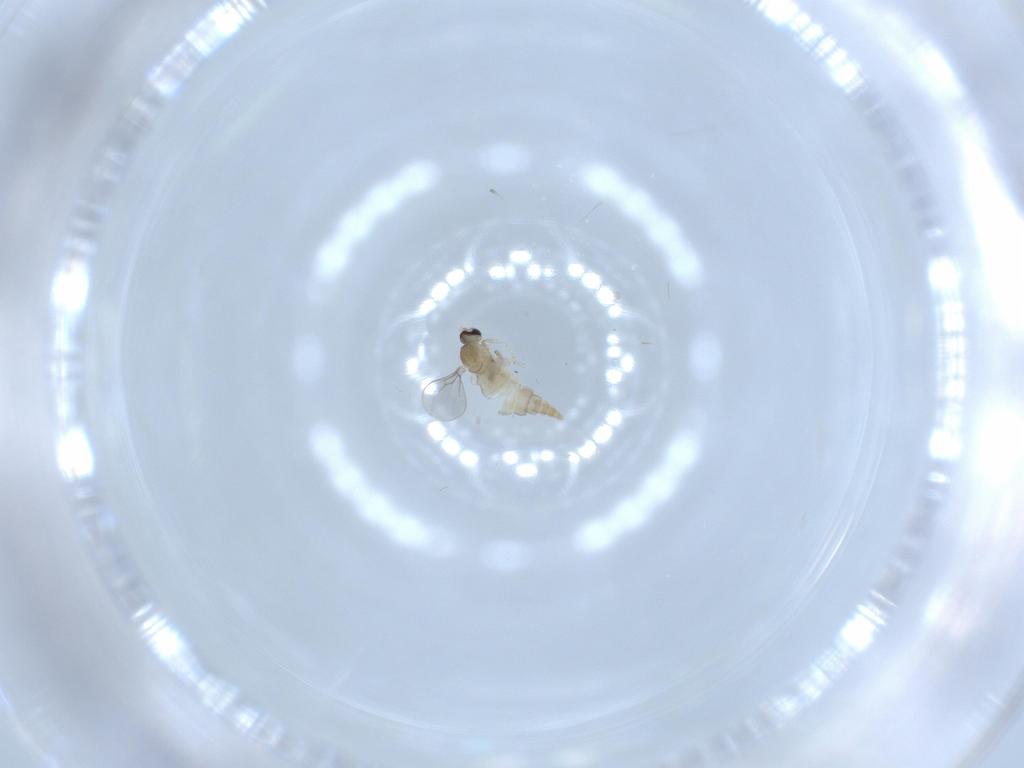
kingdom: Animalia
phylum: Arthropoda
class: Insecta
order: Diptera
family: Cecidomyiidae
